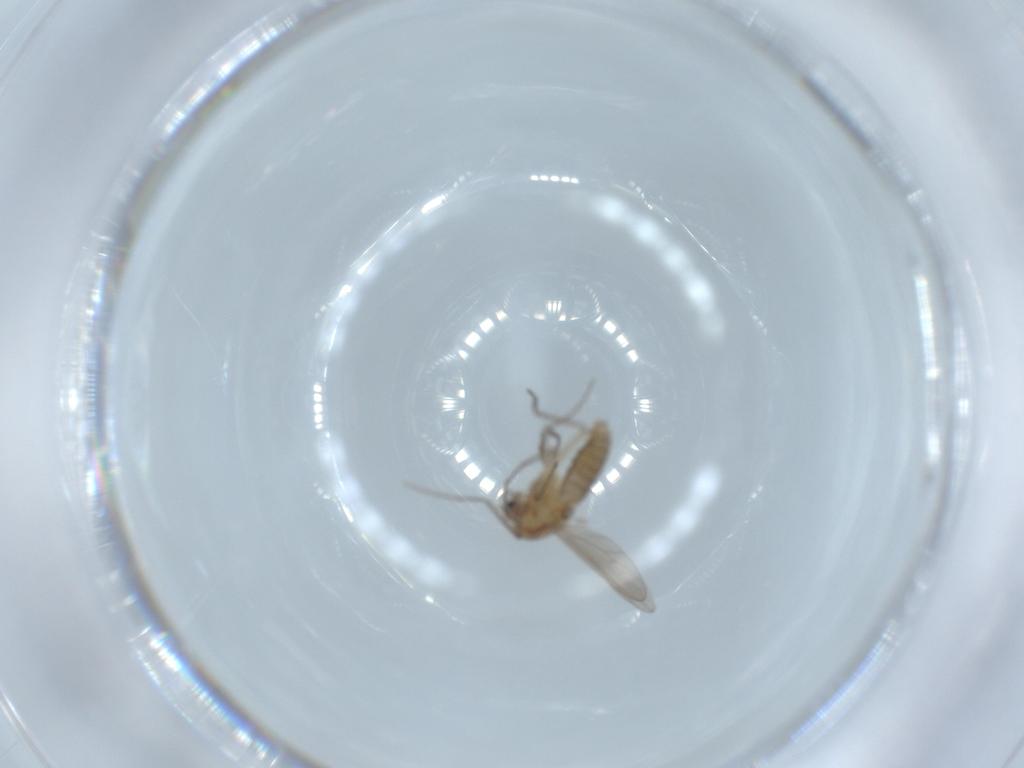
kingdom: Animalia
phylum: Arthropoda
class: Insecta
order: Diptera
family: Chironomidae
